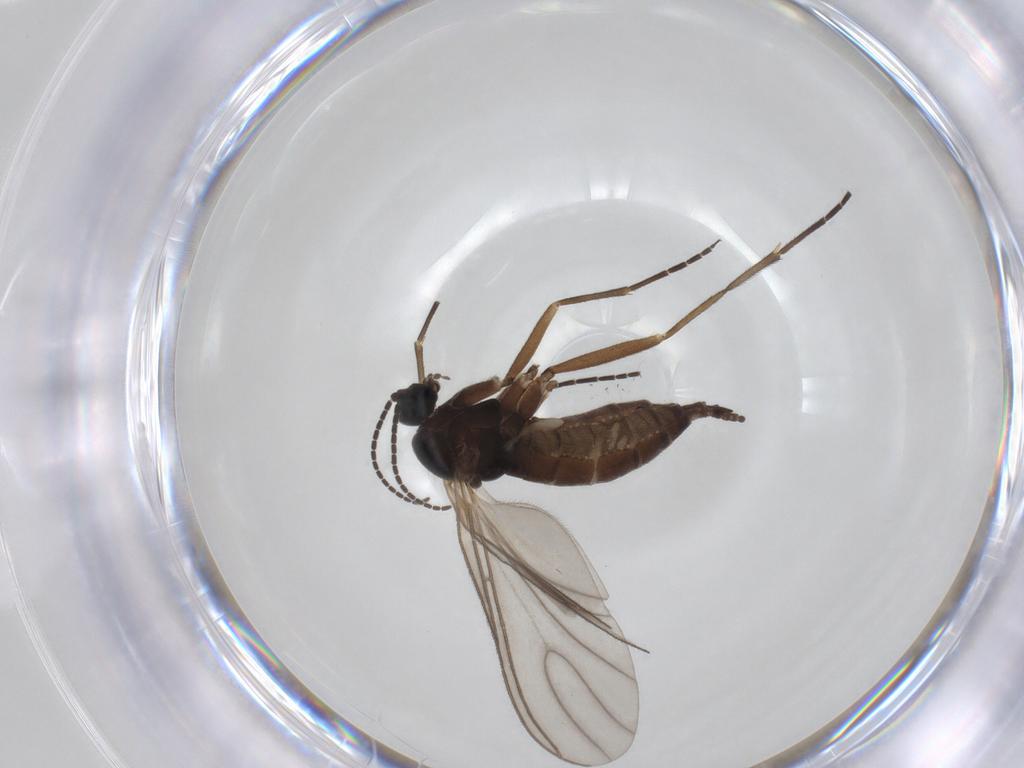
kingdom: Animalia
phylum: Arthropoda
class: Insecta
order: Diptera
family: Sciaridae
